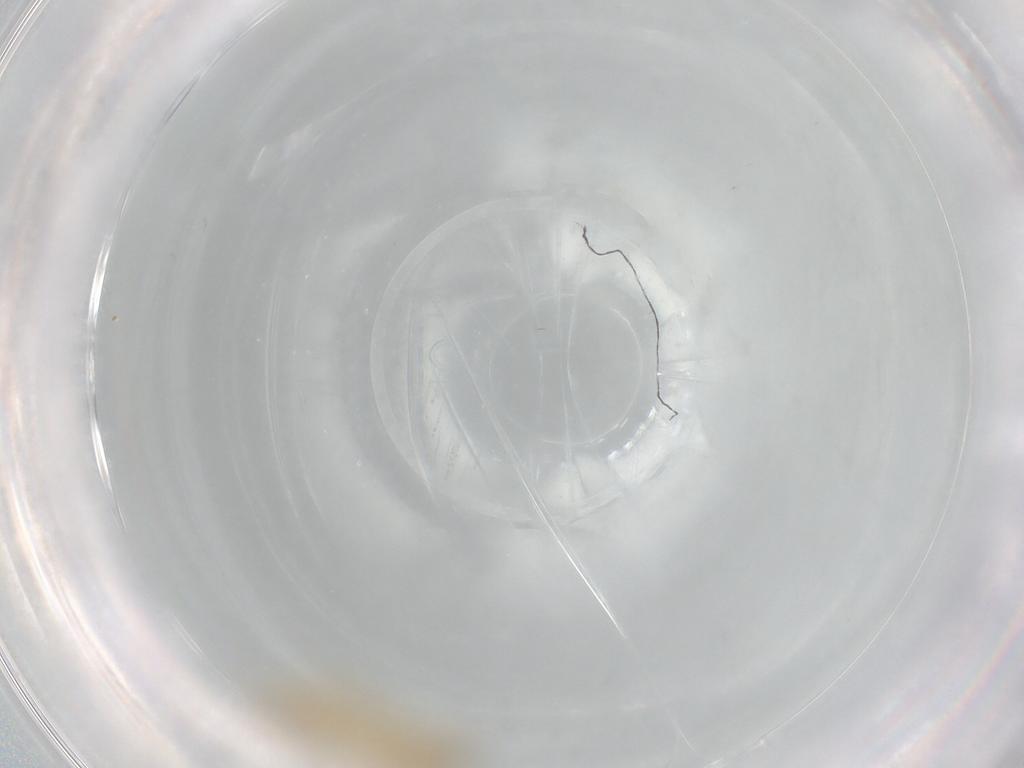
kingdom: Animalia
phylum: Arthropoda
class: Insecta
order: Psocodea
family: Lepidopsocidae
